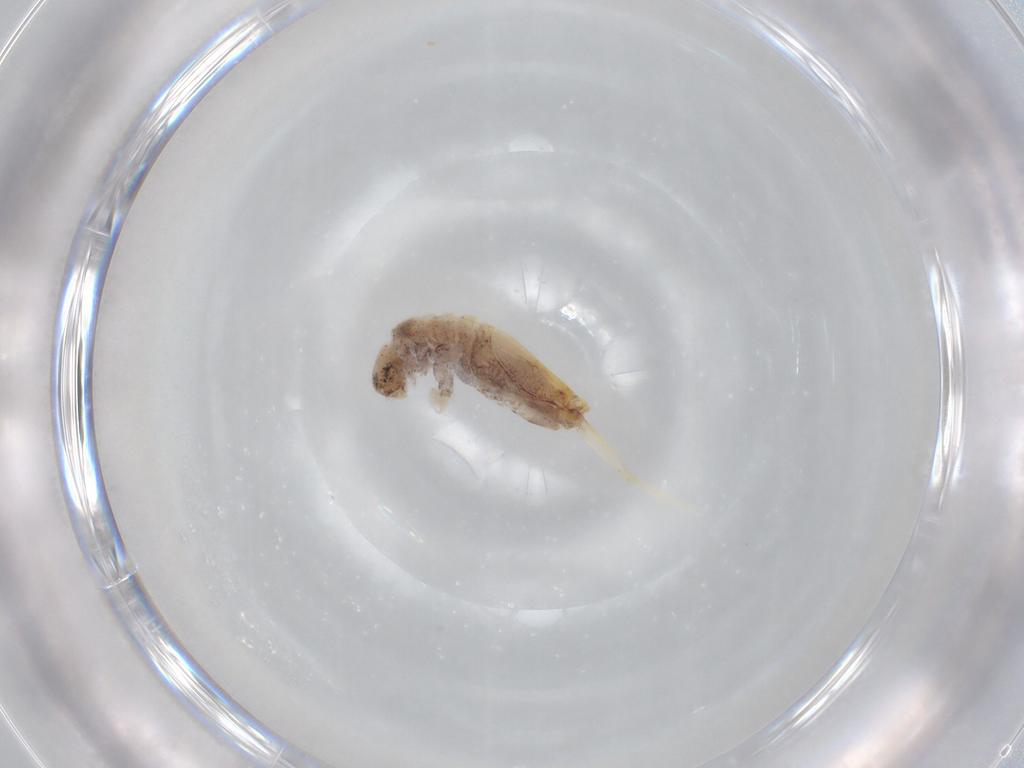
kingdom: Animalia
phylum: Arthropoda
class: Collembola
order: Entomobryomorpha
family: Entomobryidae
